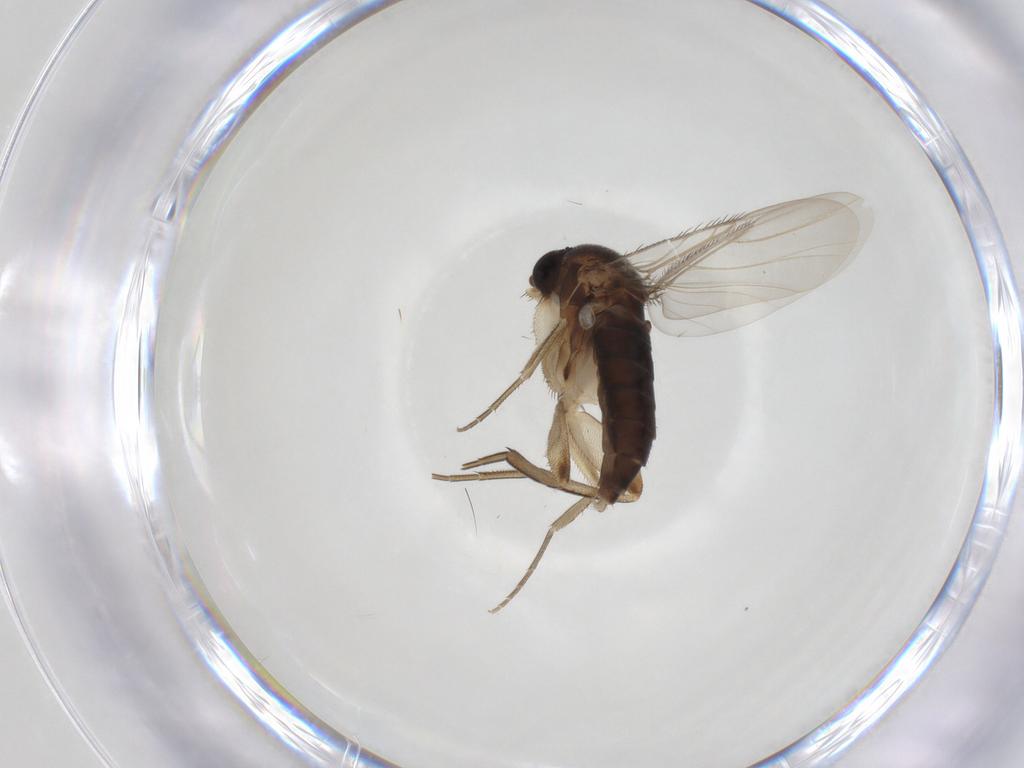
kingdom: Animalia
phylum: Arthropoda
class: Insecta
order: Diptera
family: Phoridae
